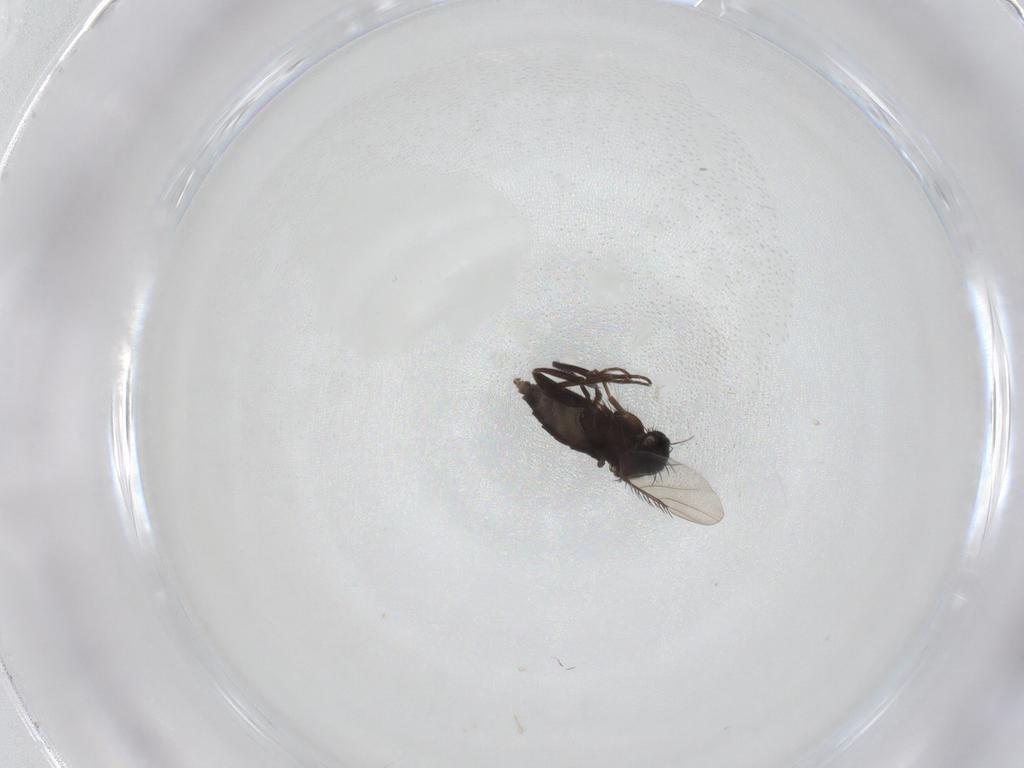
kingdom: Animalia
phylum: Arthropoda
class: Insecta
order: Diptera
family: Phoridae
